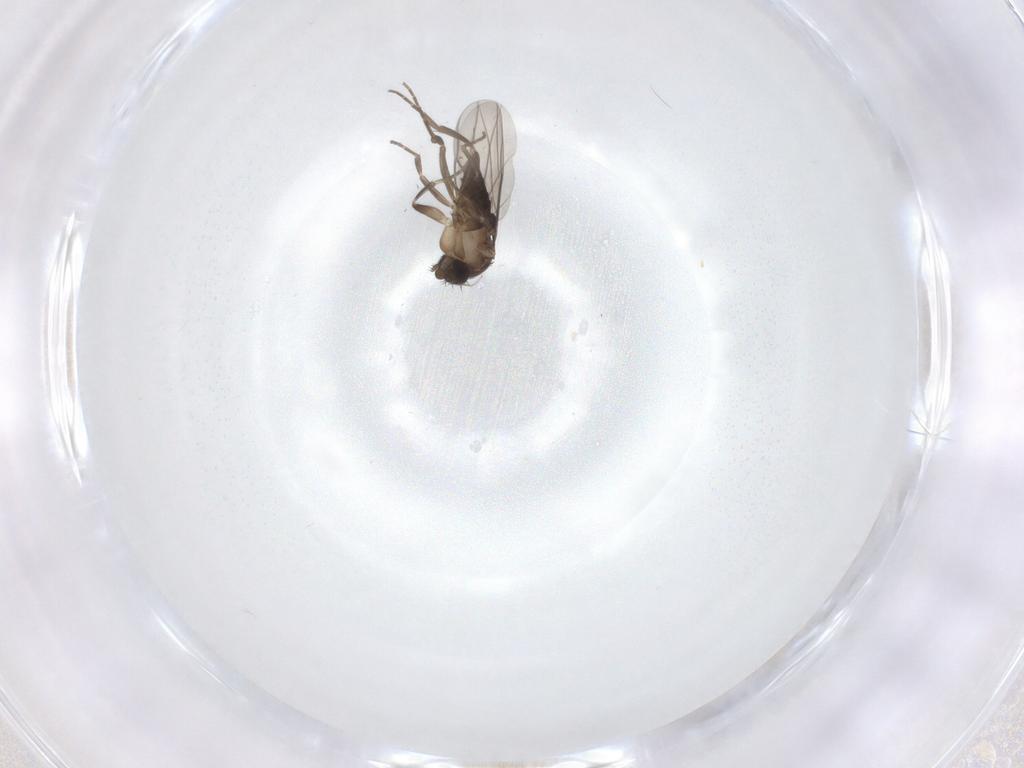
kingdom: Animalia
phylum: Arthropoda
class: Insecta
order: Diptera
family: Phoridae
